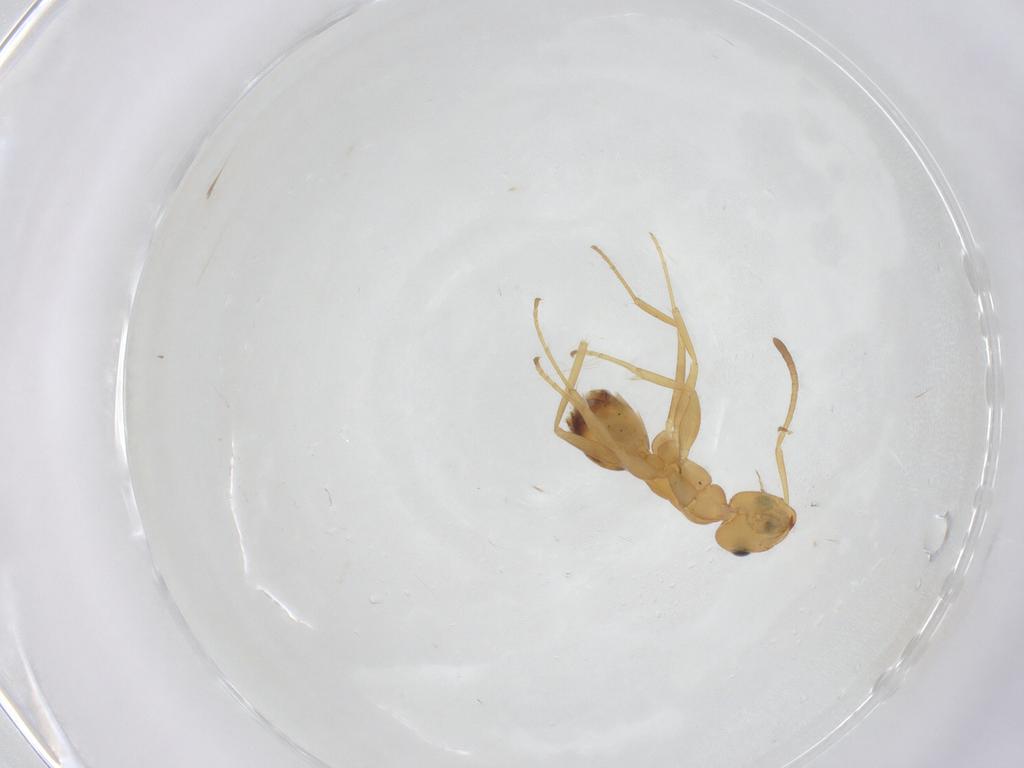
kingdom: Animalia
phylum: Arthropoda
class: Insecta
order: Hymenoptera
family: Formicidae
